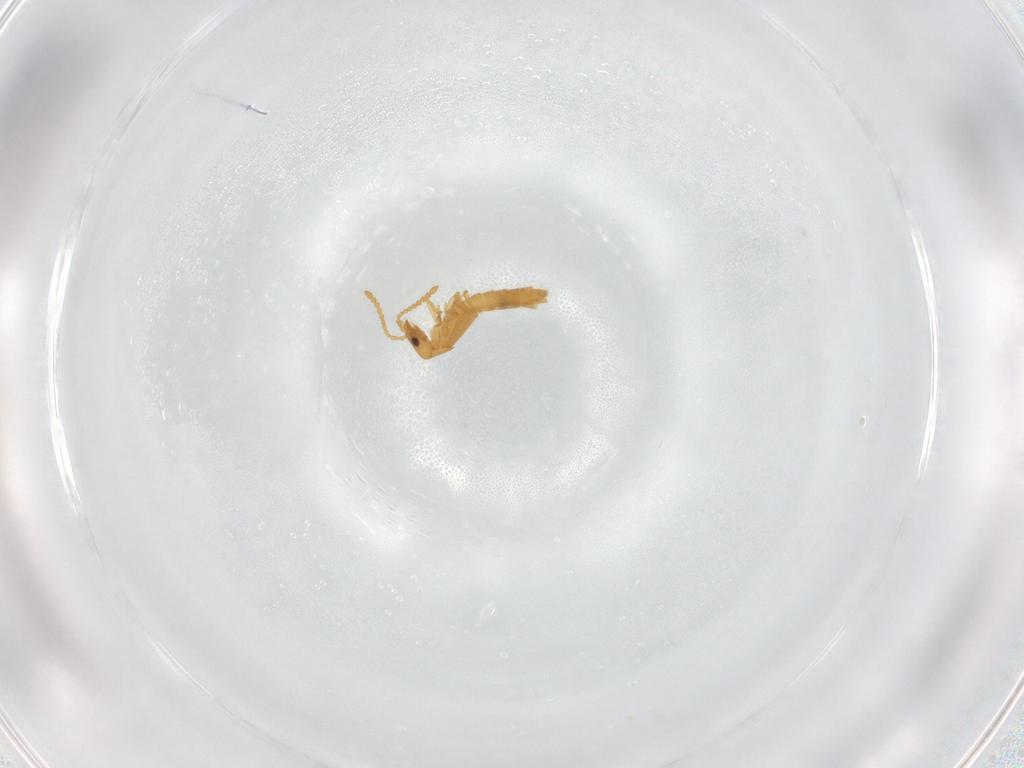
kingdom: Animalia
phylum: Arthropoda
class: Insecta
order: Coleoptera
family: Staphylinidae
